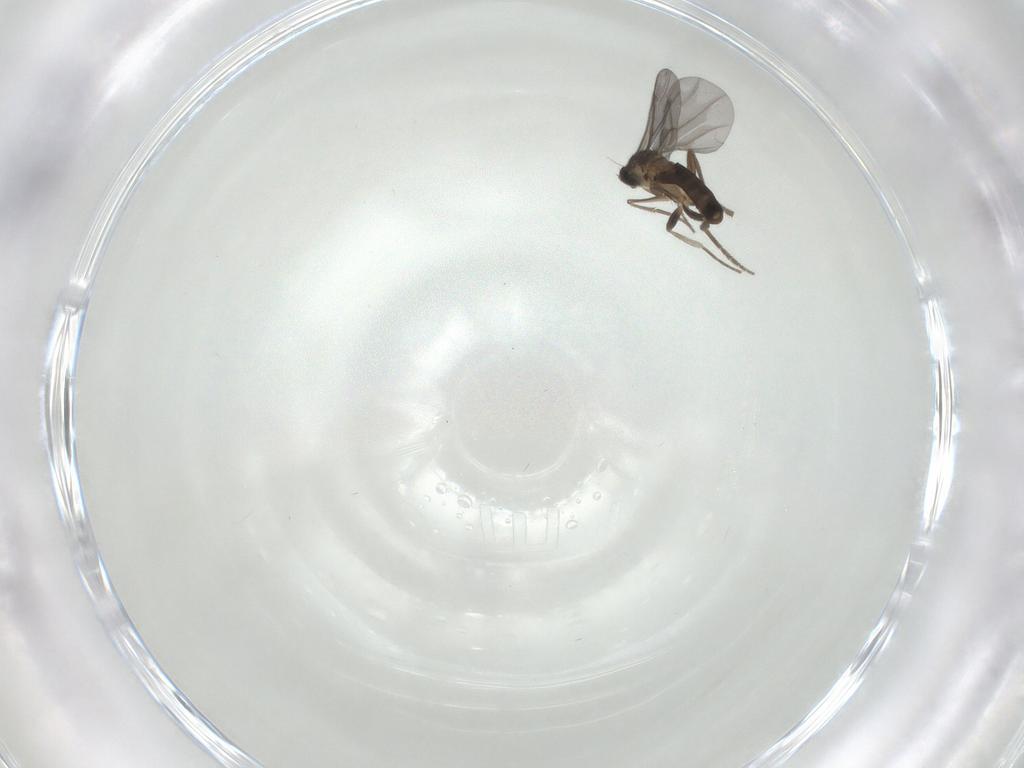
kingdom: Animalia
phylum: Arthropoda
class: Insecta
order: Diptera
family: Phoridae
